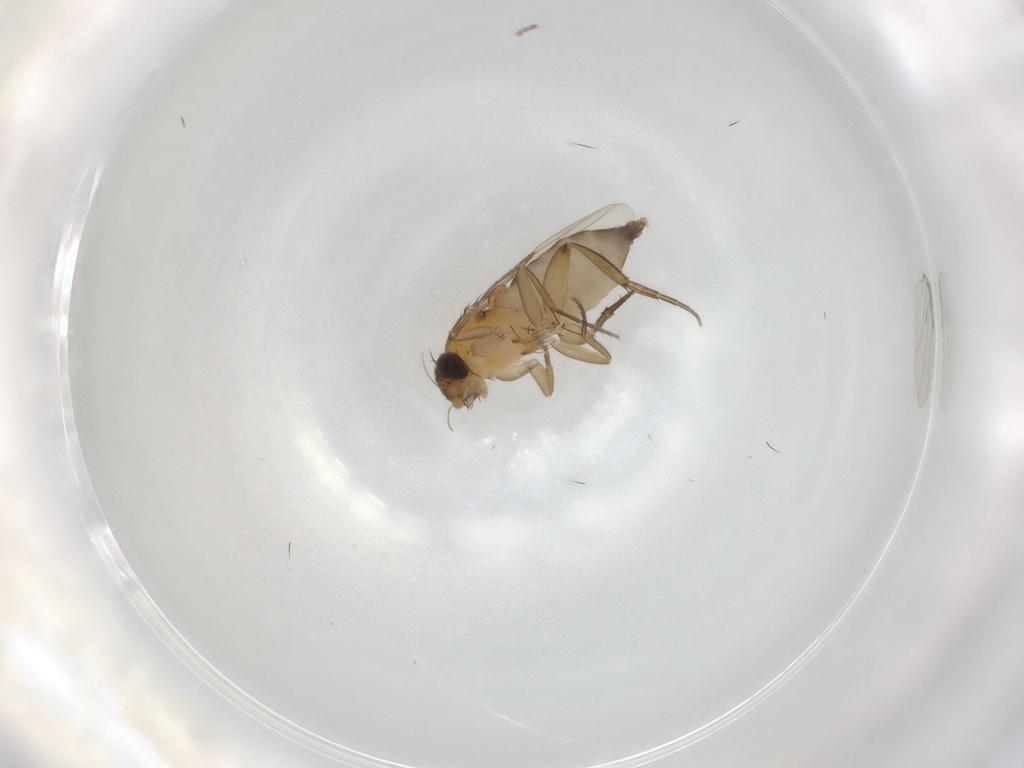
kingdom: Animalia
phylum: Arthropoda
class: Insecta
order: Diptera
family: Phoridae
